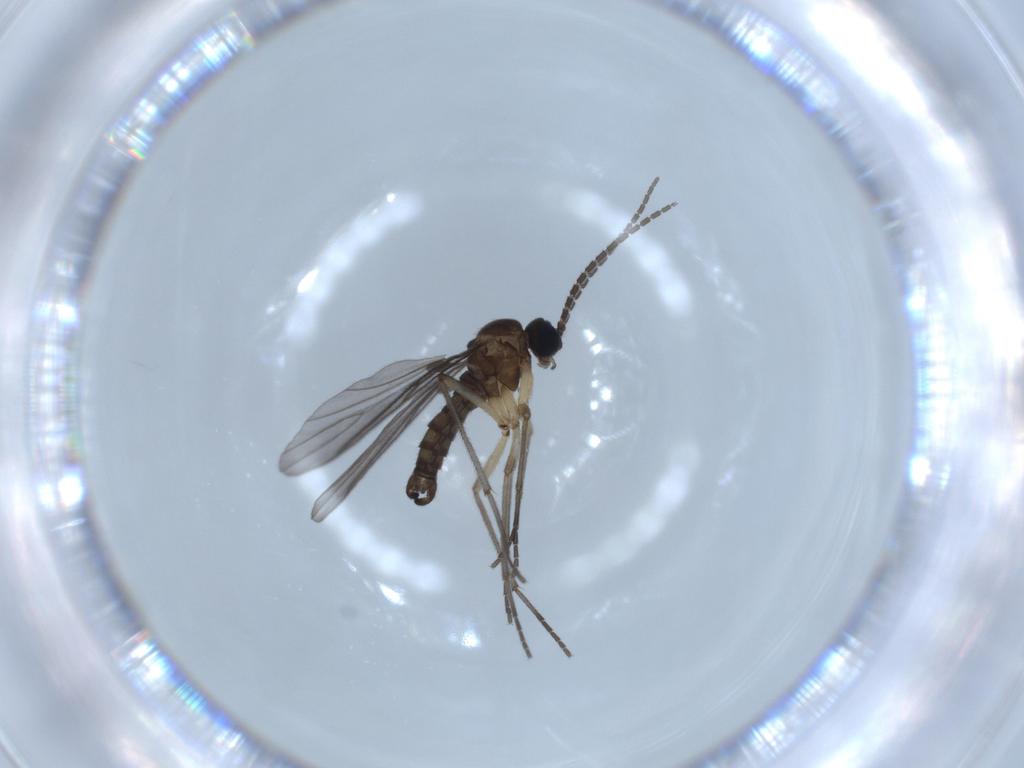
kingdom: Animalia
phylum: Arthropoda
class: Insecta
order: Diptera
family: Sciaridae
